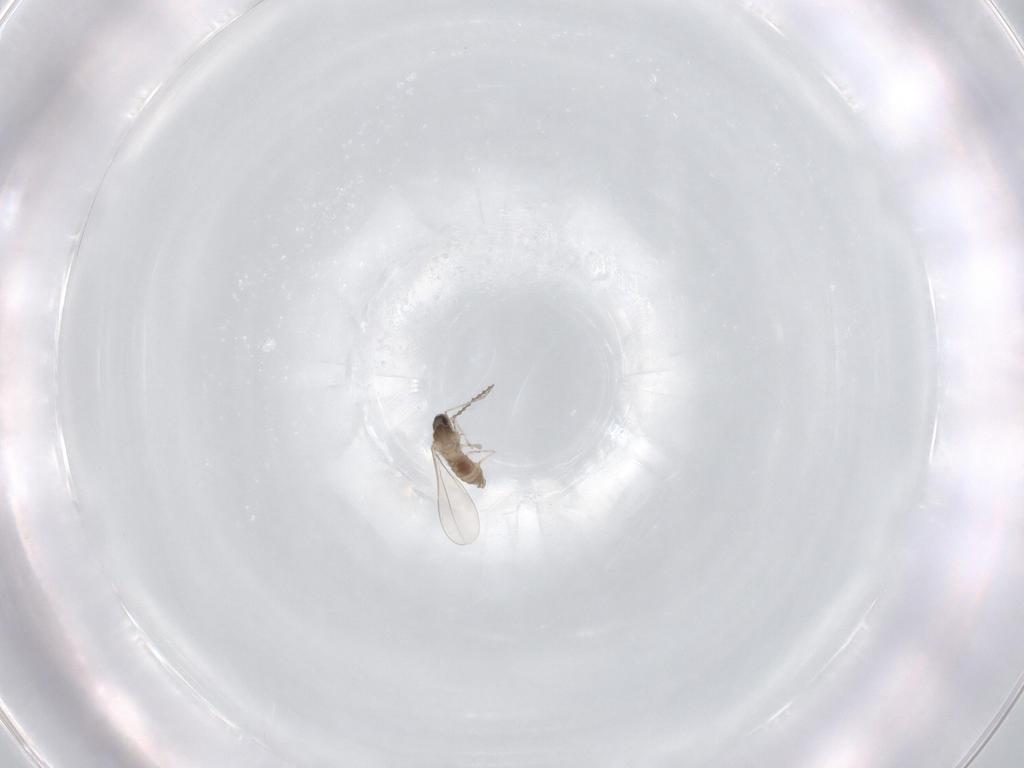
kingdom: Animalia
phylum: Arthropoda
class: Insecta
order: Diptera
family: Cecidomyiidae
